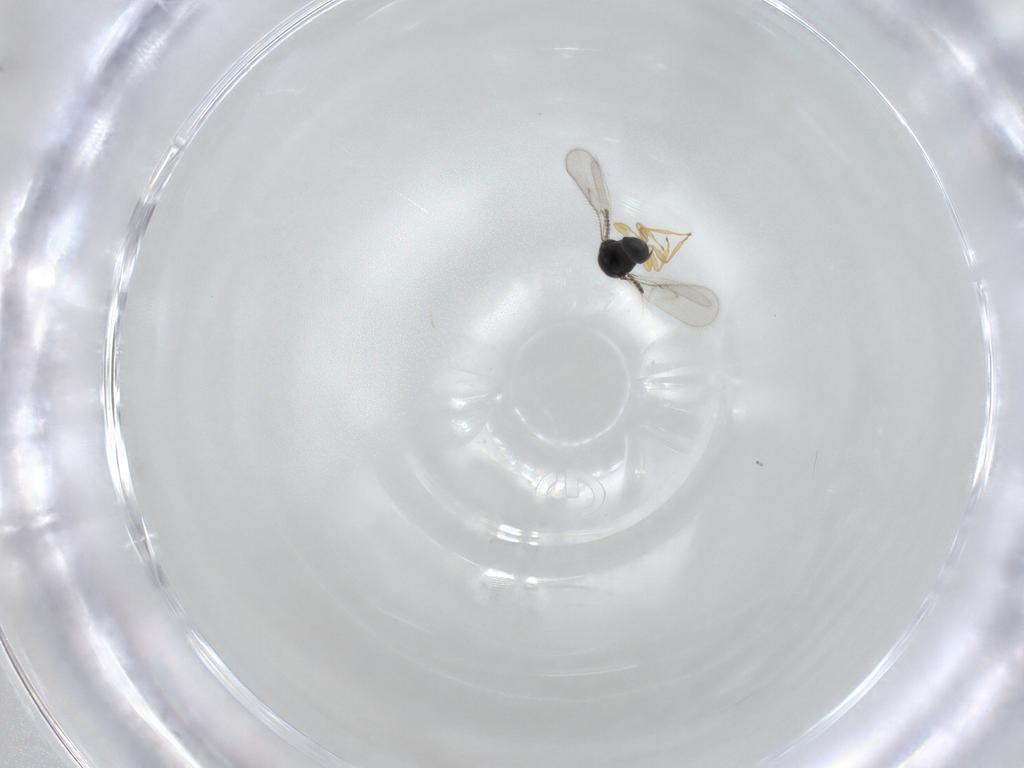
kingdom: Animalia
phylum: Arthropoda
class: Insecta
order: Hymenoptera
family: Scelionidae
